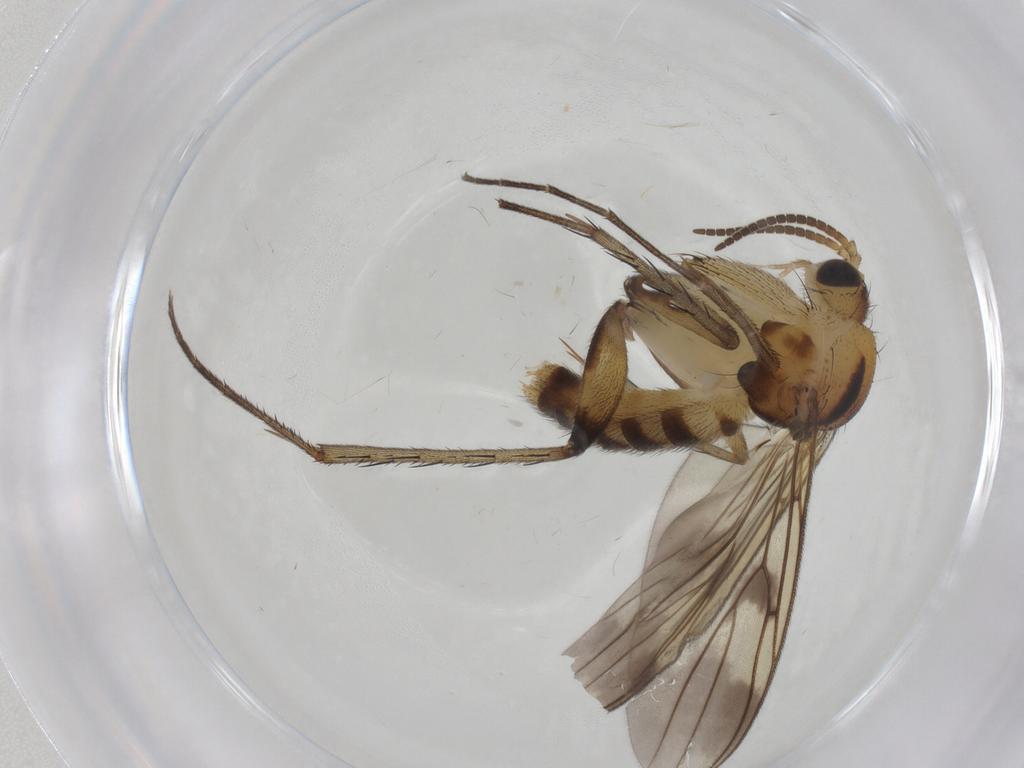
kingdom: Animalia
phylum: Arthropoda
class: Insecta
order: Diptera
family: Mycetophilidae
